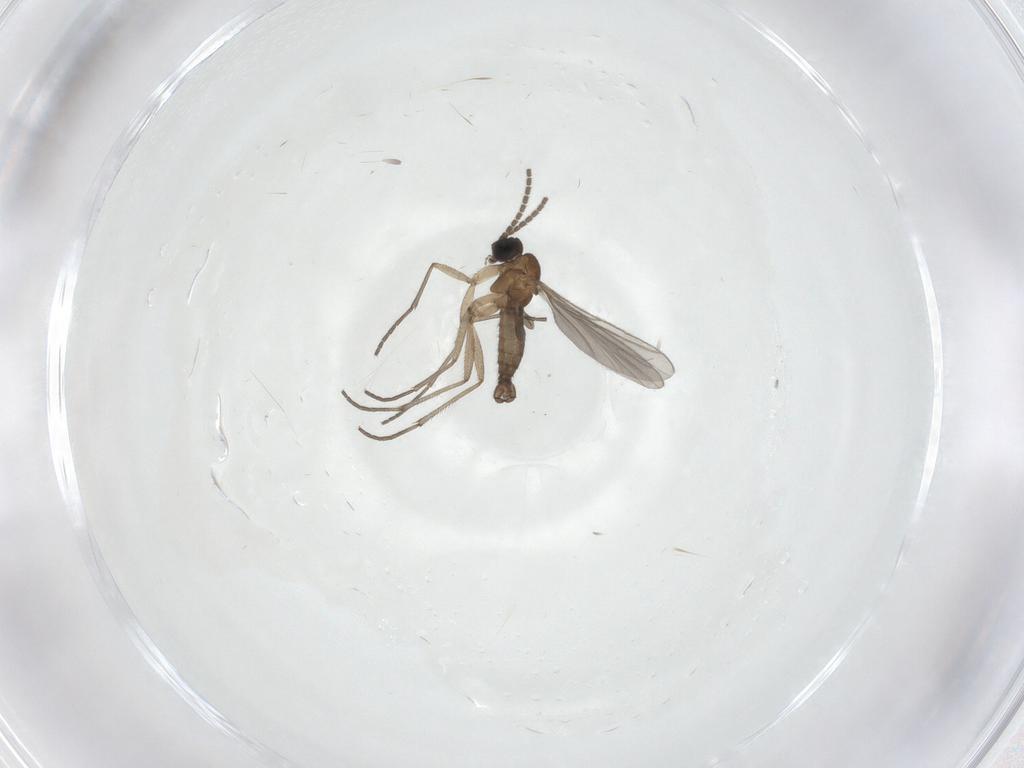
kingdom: Animalia
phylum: Arthropoda
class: Insecta
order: Diptera
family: Sciaridae
